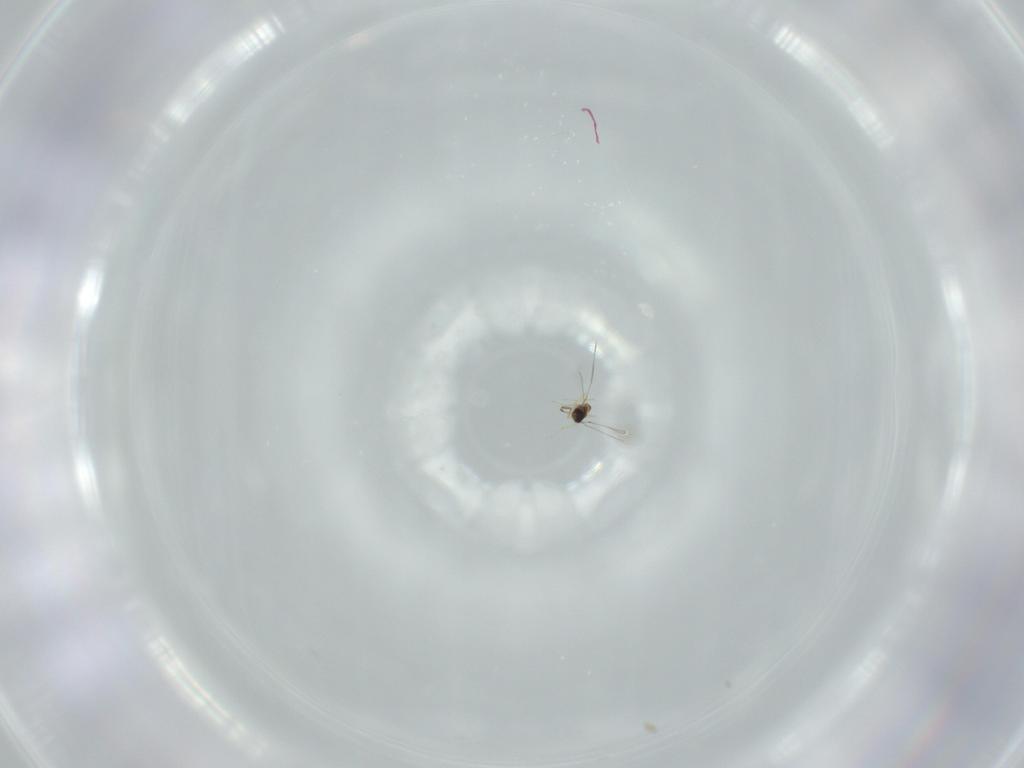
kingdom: Animalia
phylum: Arthropoda
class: Insecta
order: Hymenoptera
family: Mymaridae
